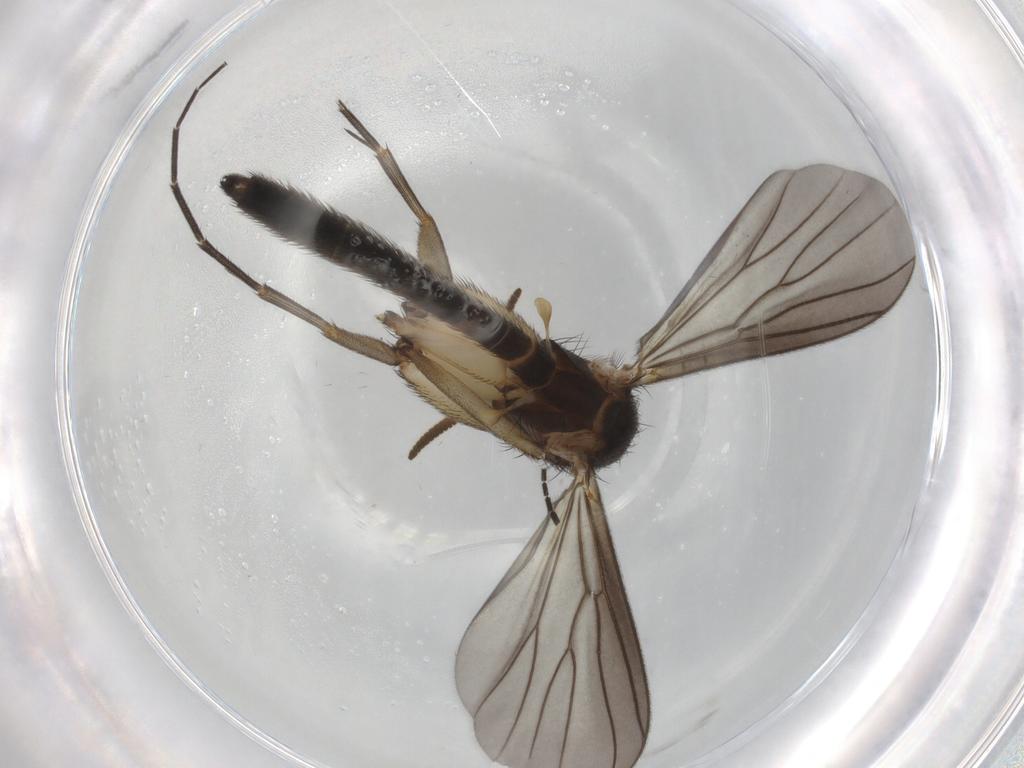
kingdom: Animalia
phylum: Arthropoda
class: Insecta
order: Diptera
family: Mycetophilidae
